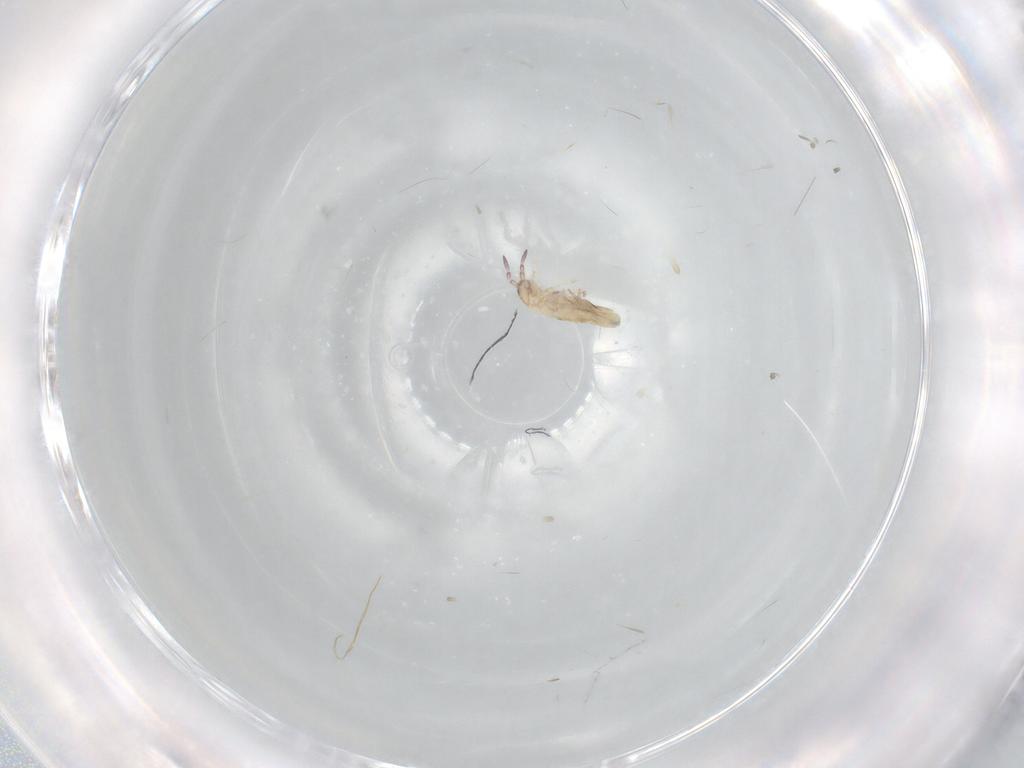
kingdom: Animalia
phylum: Arthropoda
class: Collembola
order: Entomobryomorpha
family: Entomobryidae
